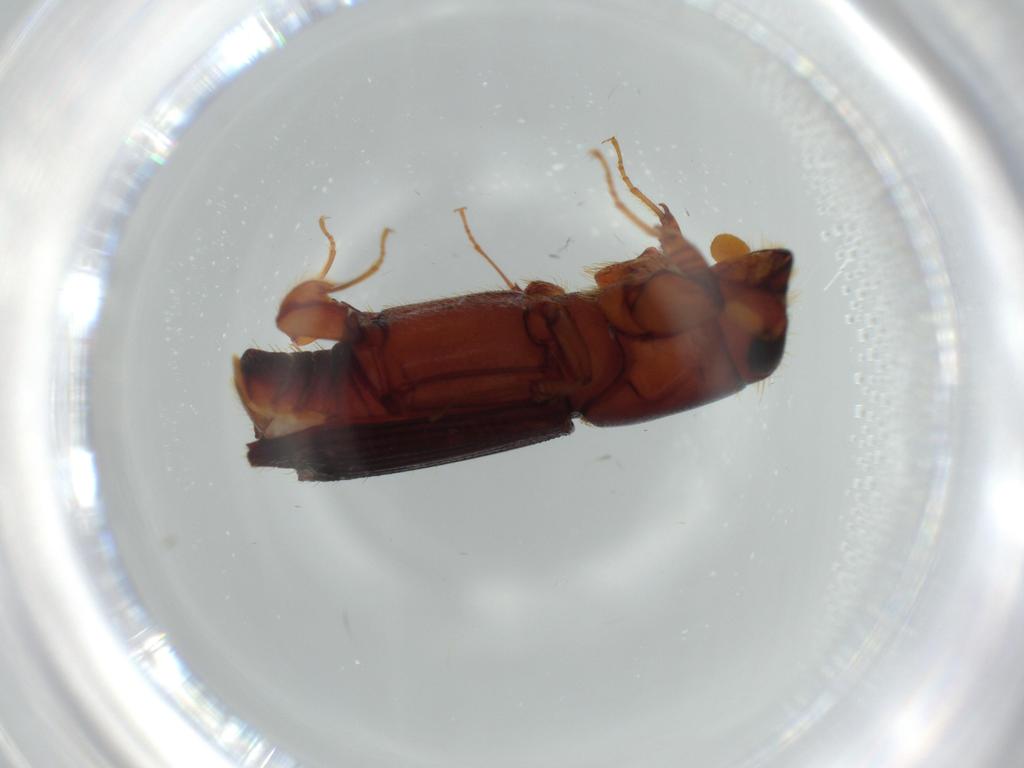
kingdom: Animalia
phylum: Arthropoda
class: Insecta
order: Coleoptera
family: Curculionidae
